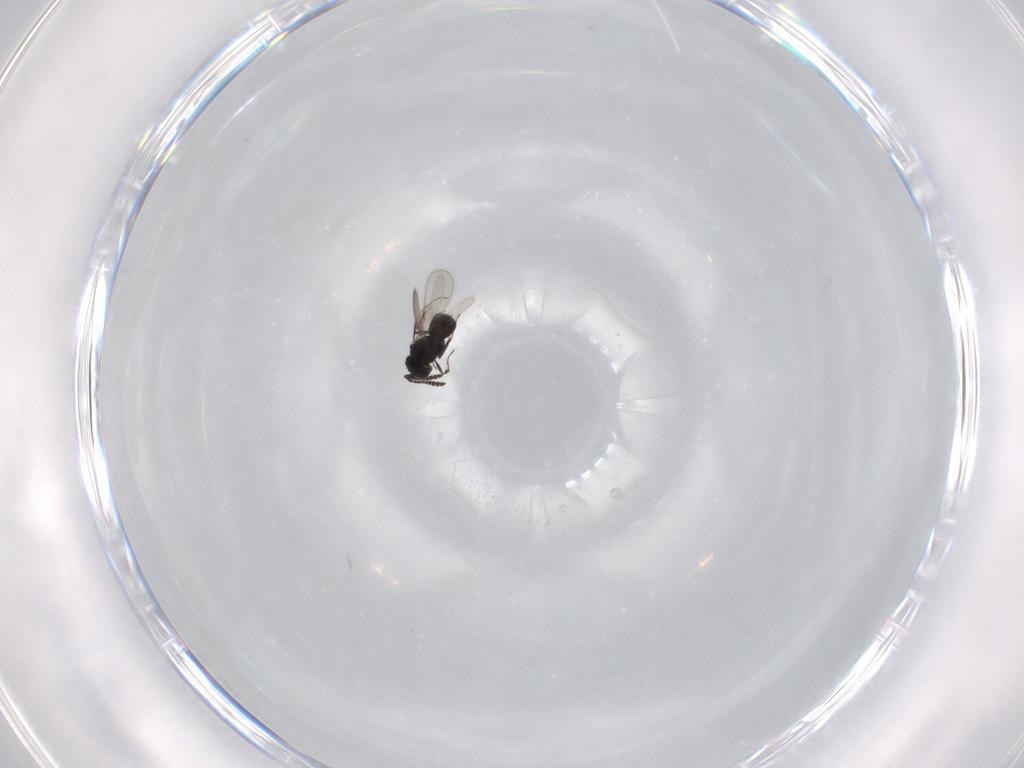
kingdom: Animalia
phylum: Arthropoda
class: Insecta
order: Hymenoptera
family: Scelionidae
